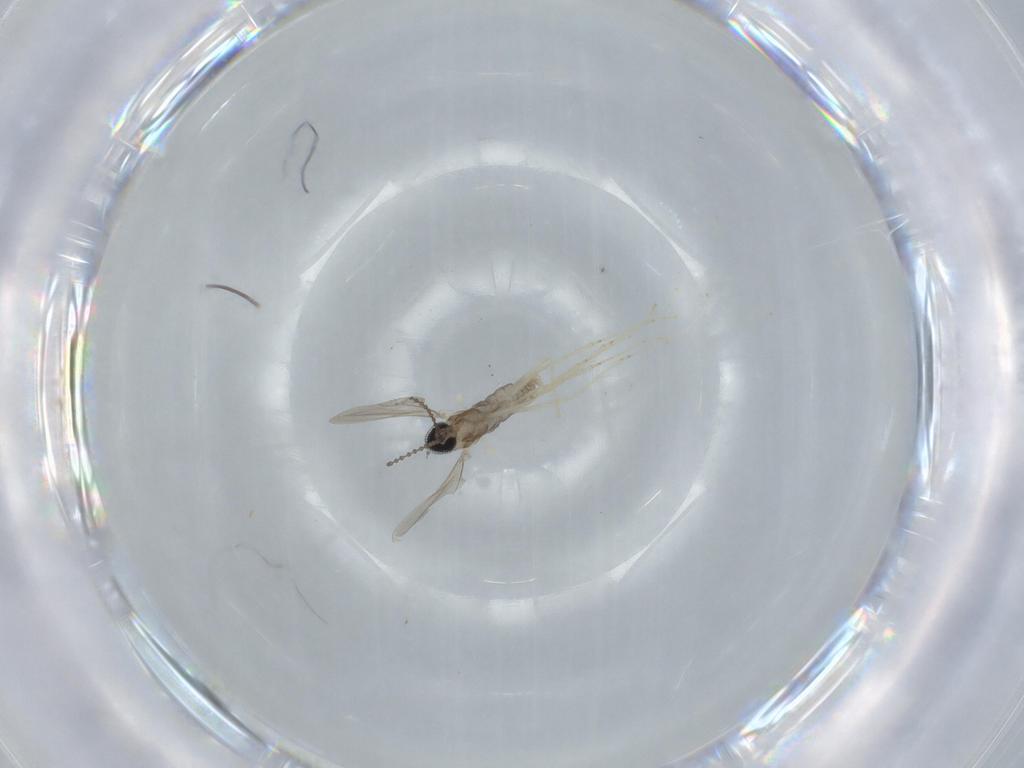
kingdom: Animalia
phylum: Arthropoda
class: Insecta
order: Diptera
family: Cecidomyiidae
